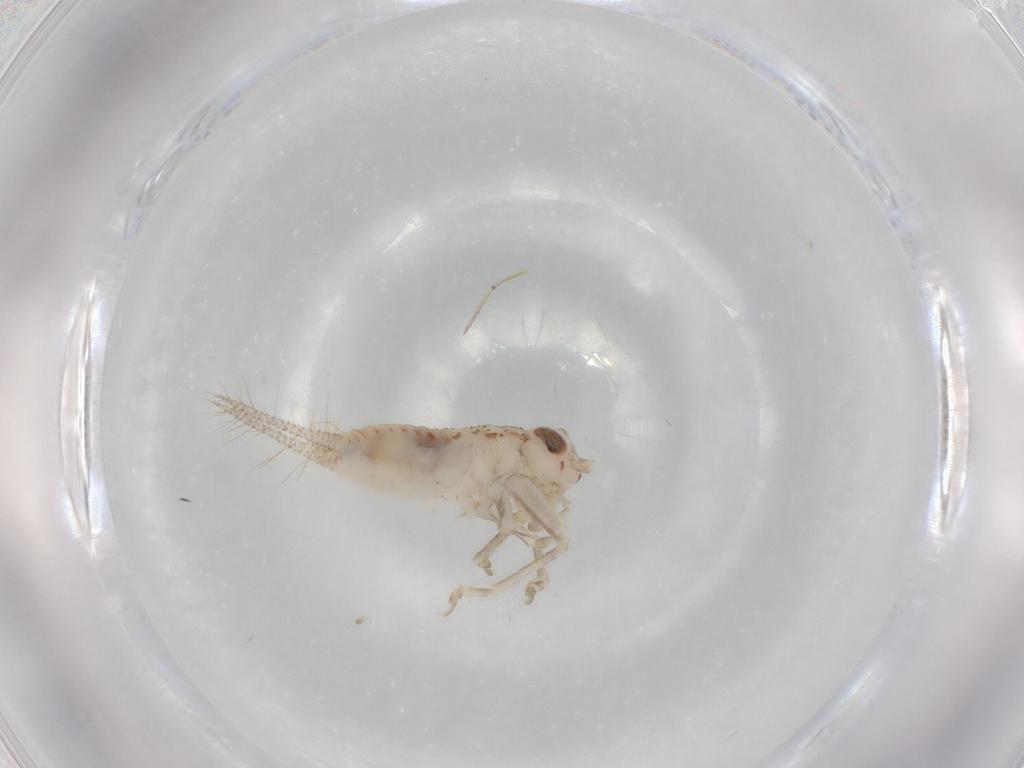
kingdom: Animalia
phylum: Arthropoda
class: Insecta
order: Orthoptera
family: Trigonidiidae
